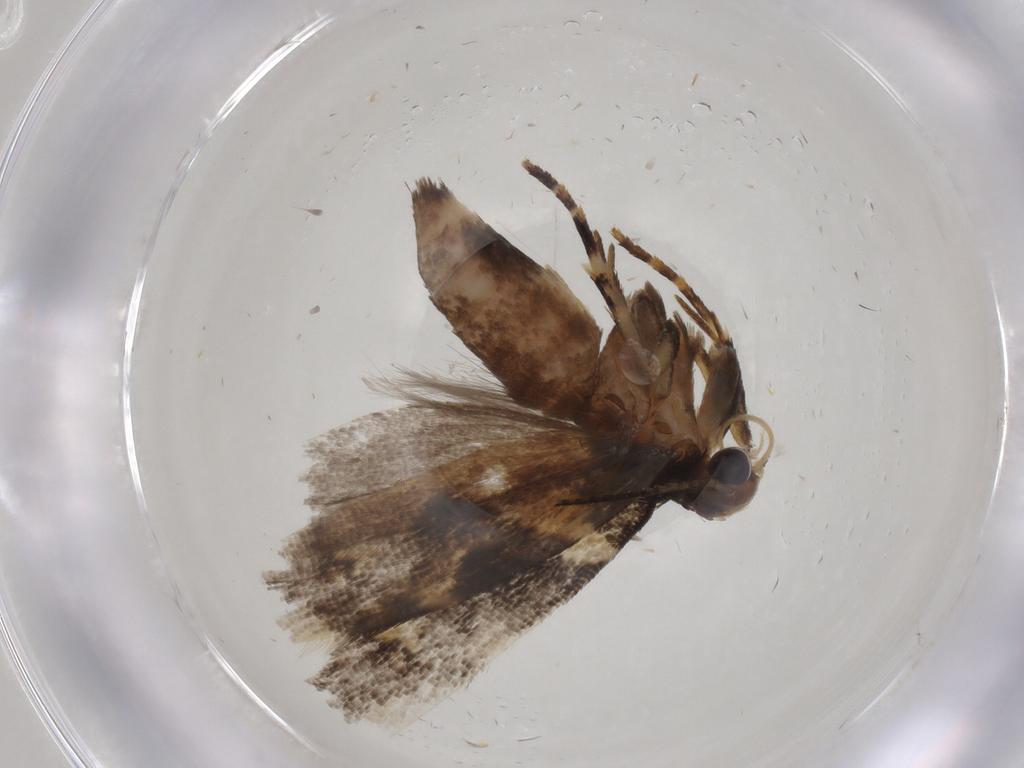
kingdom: Animalia
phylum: Arthropoda
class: Insecta
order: Lepidoptera
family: Gelechiidae
